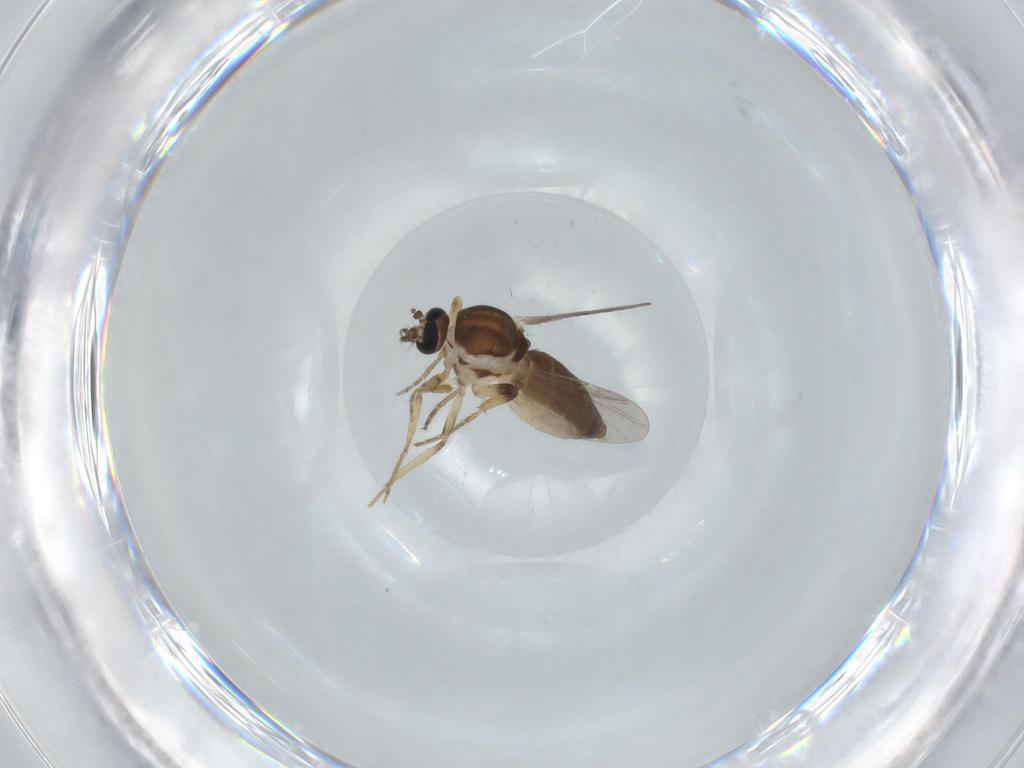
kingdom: Animalia
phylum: Arthropoda
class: Insecta
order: Diptera
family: Ceratopogonidae
